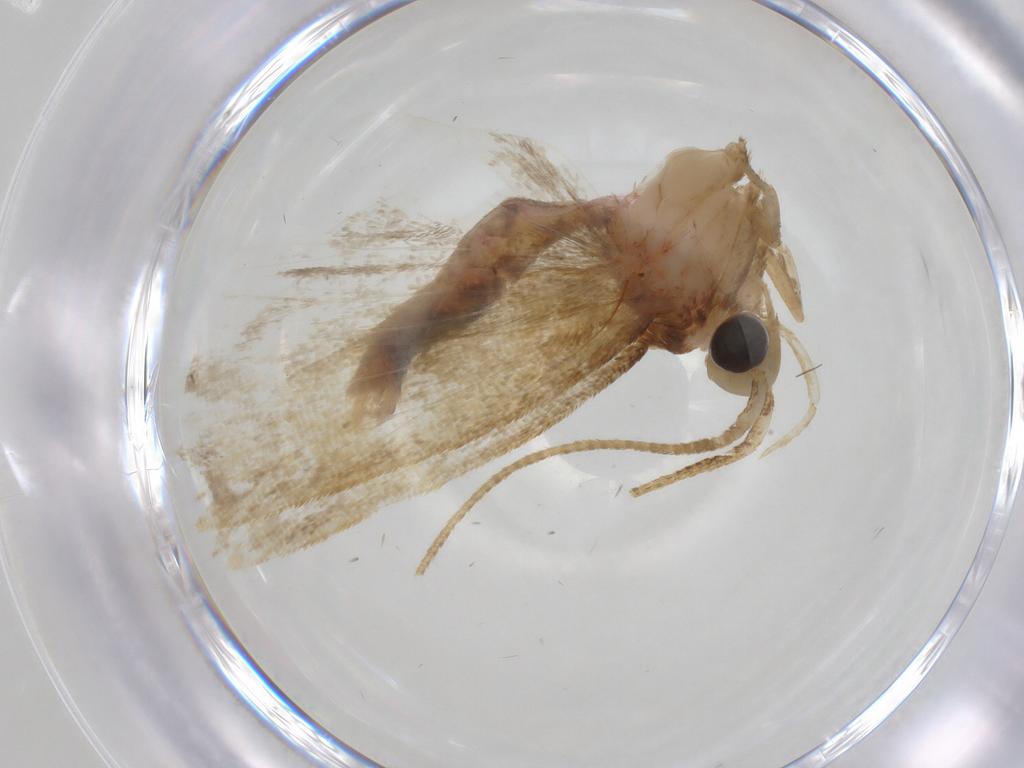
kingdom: Animalia
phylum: Arthropoda
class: Insecta
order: Lepidoptera
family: Autostichidae
